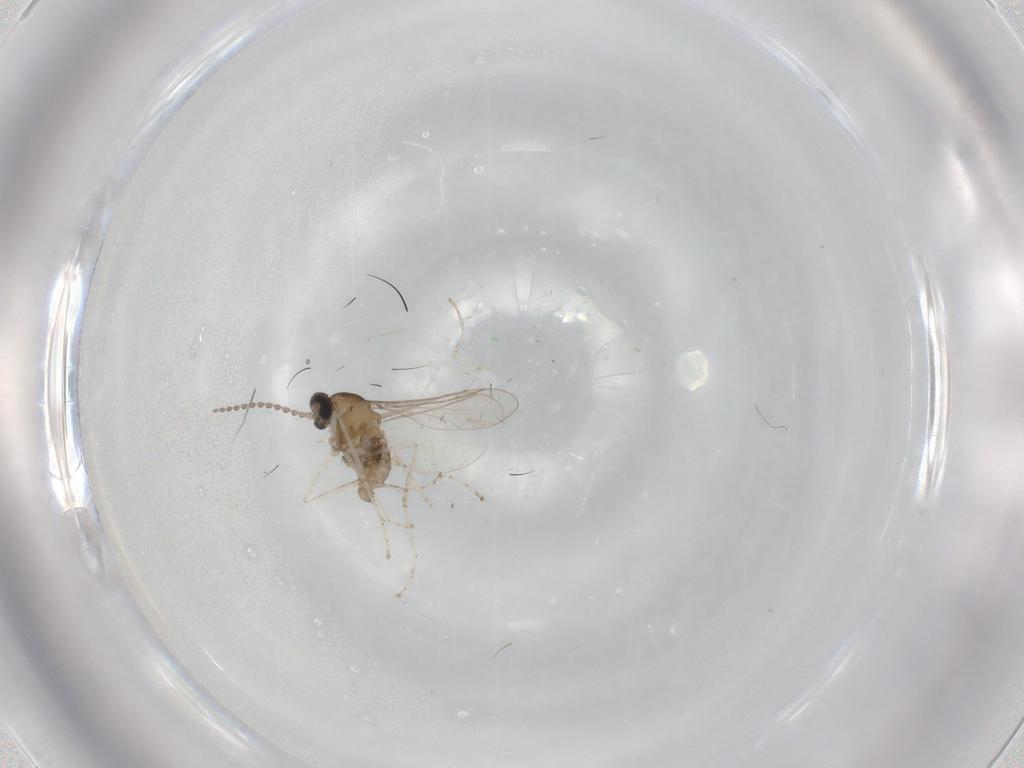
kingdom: Animalia
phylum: Arthropoda
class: Insecta
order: Diptera
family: Cecidomyiidae
